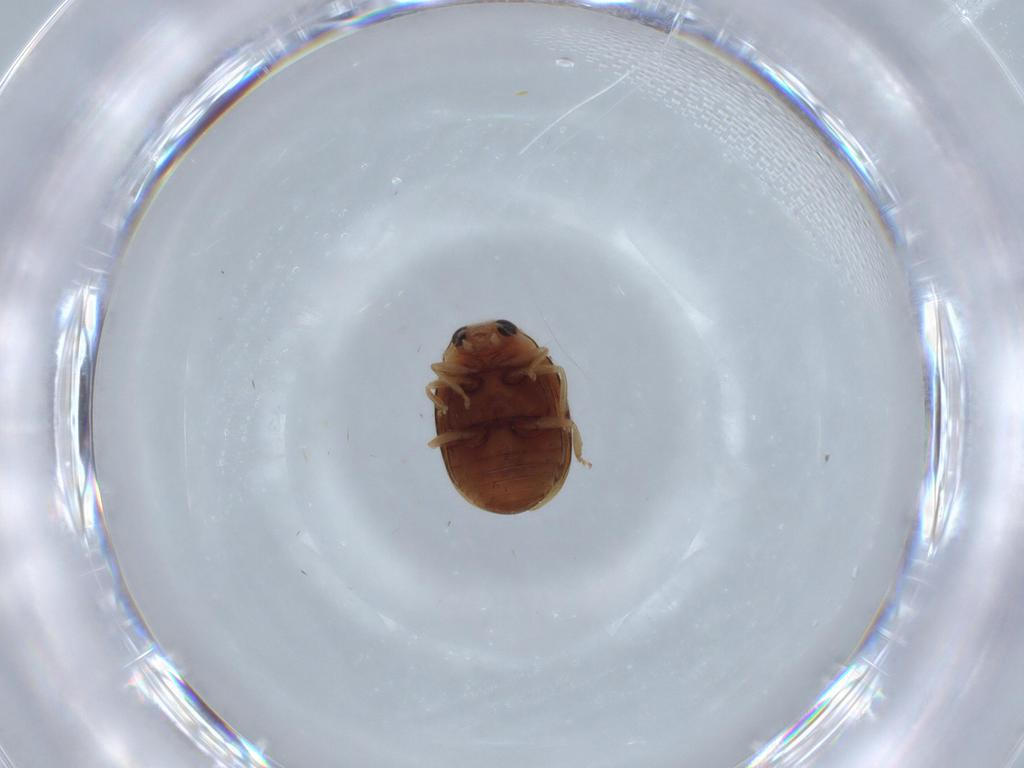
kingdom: Animalia
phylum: Arthropoda
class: Insecta
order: Coleoptera
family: Coccinellidae
